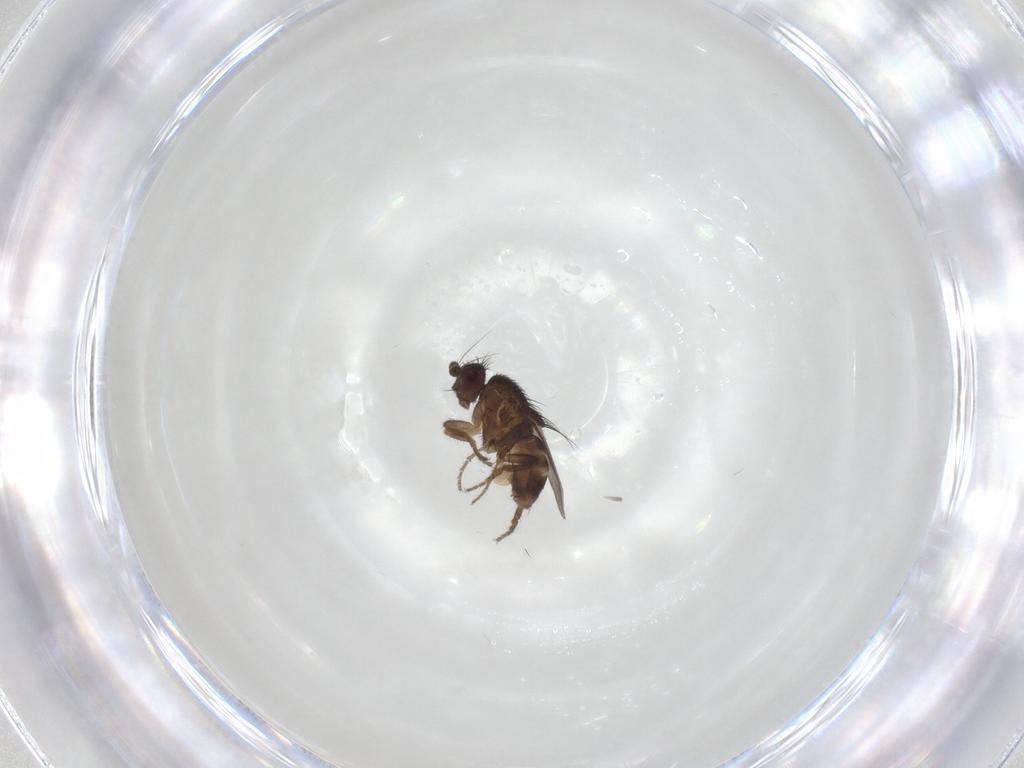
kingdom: Animalia
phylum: Arthropoda
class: Insecta
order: Diptera
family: Sphaeroceridae
